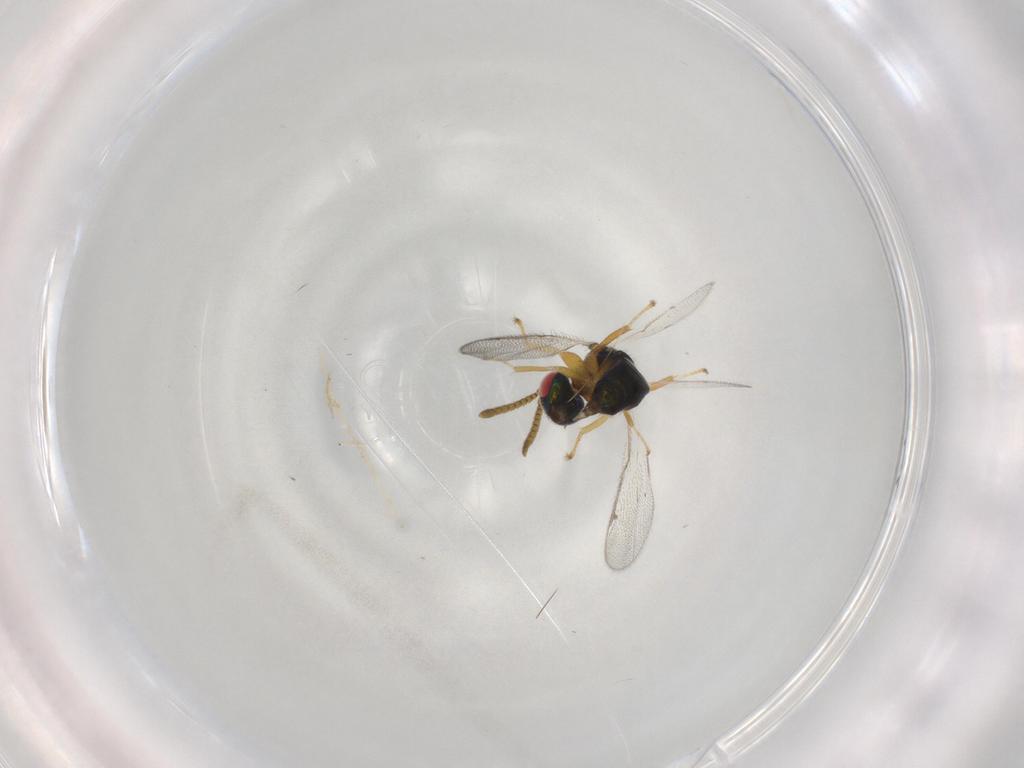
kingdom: Animalia
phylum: Arthropoda
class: Insecta
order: Hymenoptera
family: Torymidae
